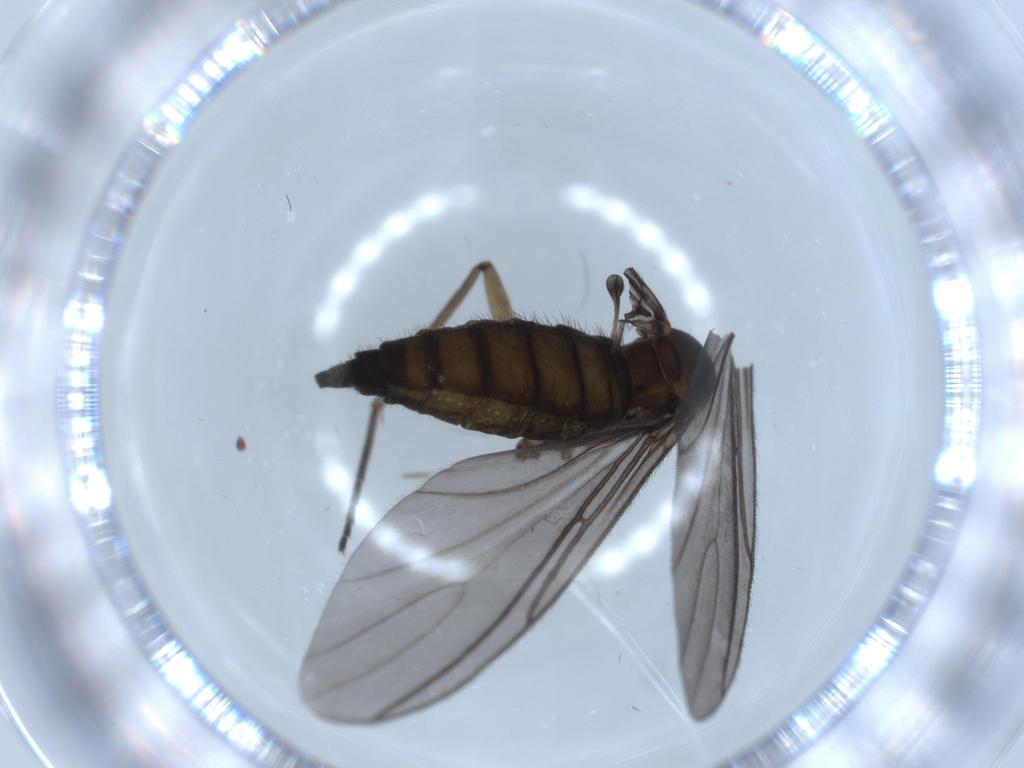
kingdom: Animalia
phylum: Arthropoda
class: Insecta
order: Diptera
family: Sciaridae
